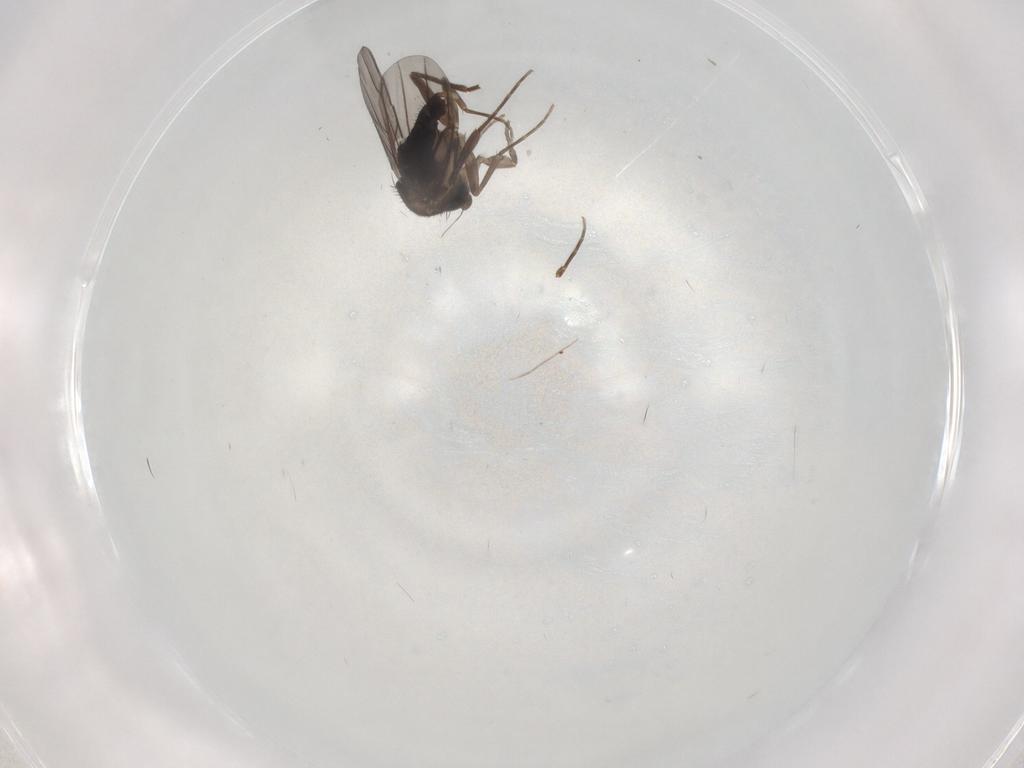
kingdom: Animalia
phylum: Arthropoda
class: Insecta
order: Diptera
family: Phoridae
